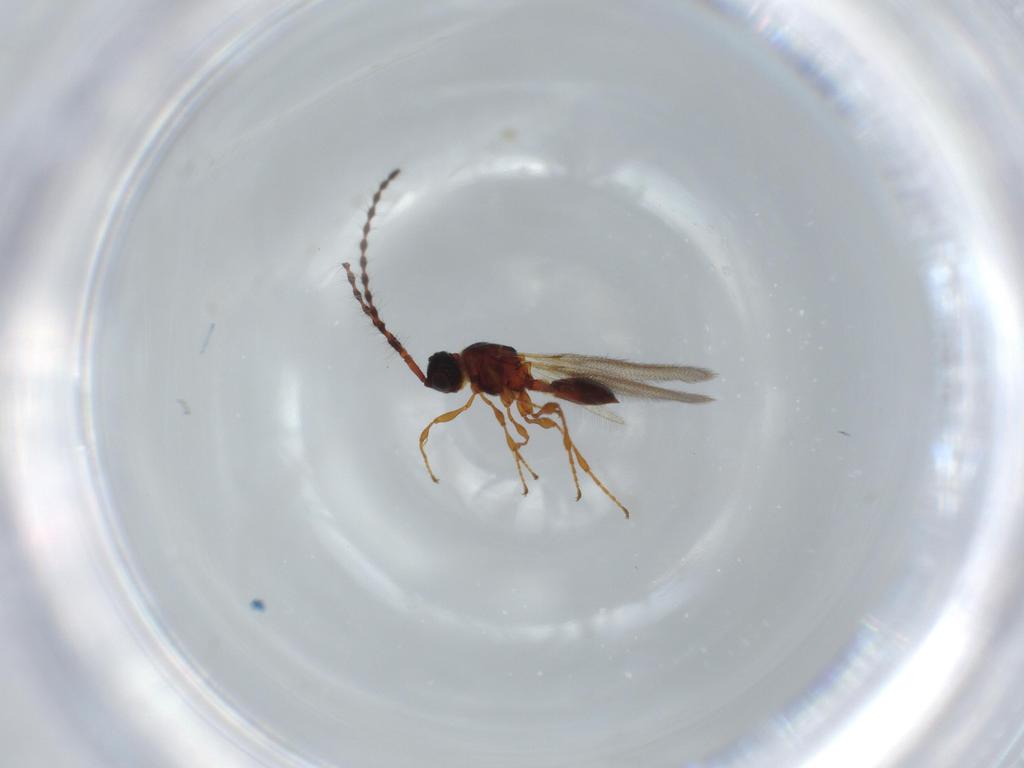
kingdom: Animalia
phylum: Arthropoda
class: Insecta
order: Hymenoptera
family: Diapriidae
